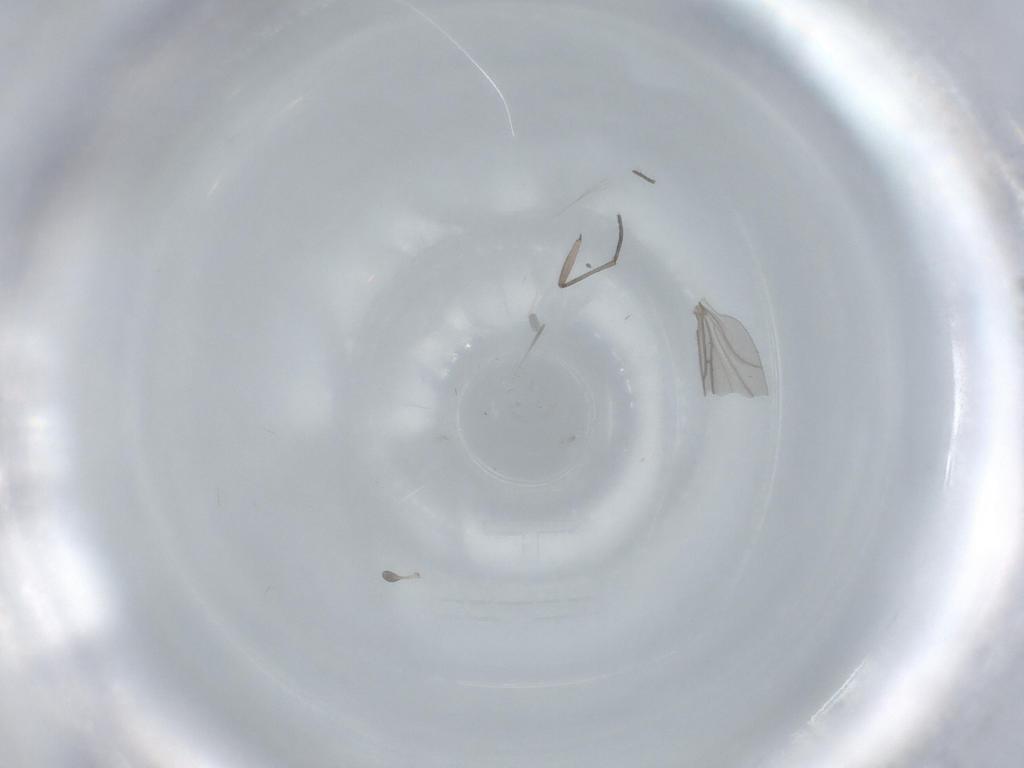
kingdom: Animalia
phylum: Arthropoda
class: Insecta
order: Diptera
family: Sciaridae
